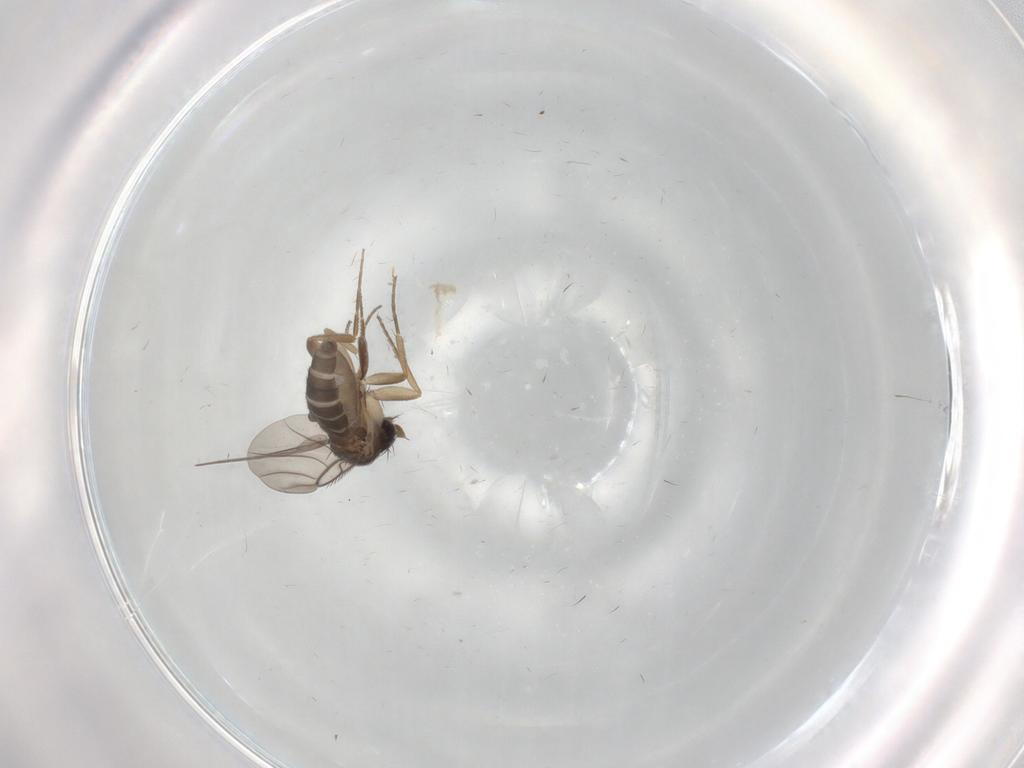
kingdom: Animalia
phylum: Arthropoda
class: Insecta
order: Diptera
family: Phoridae
